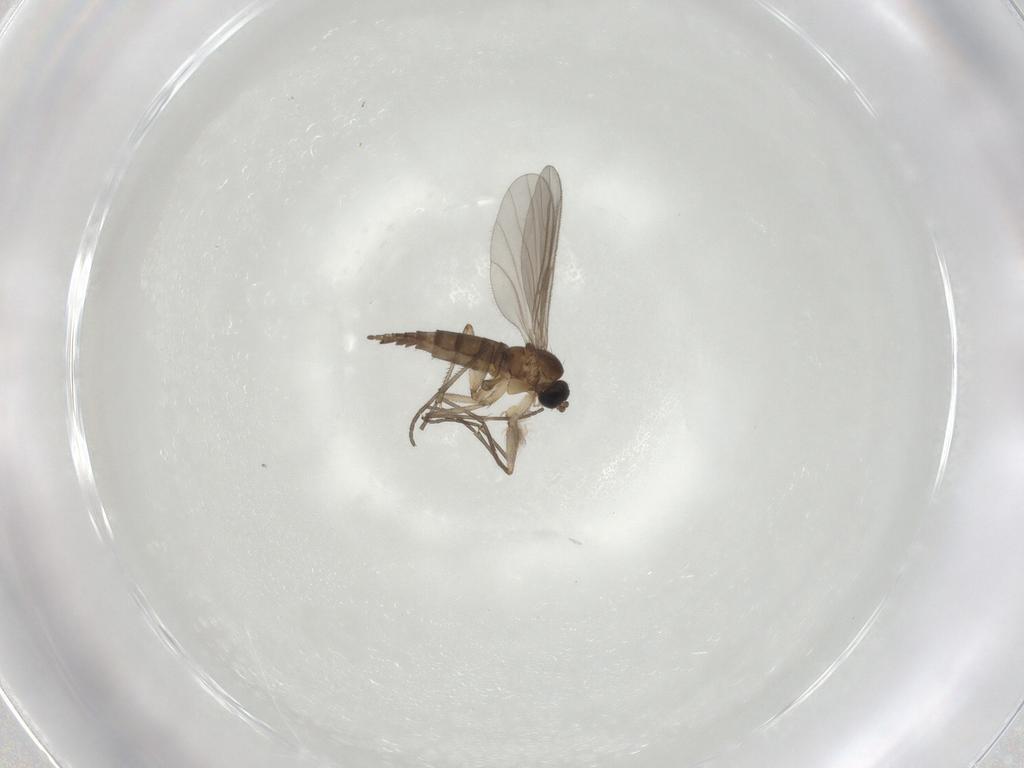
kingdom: Animalia
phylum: Arthropoda
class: Insecta
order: Diptera
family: Sciaridae
